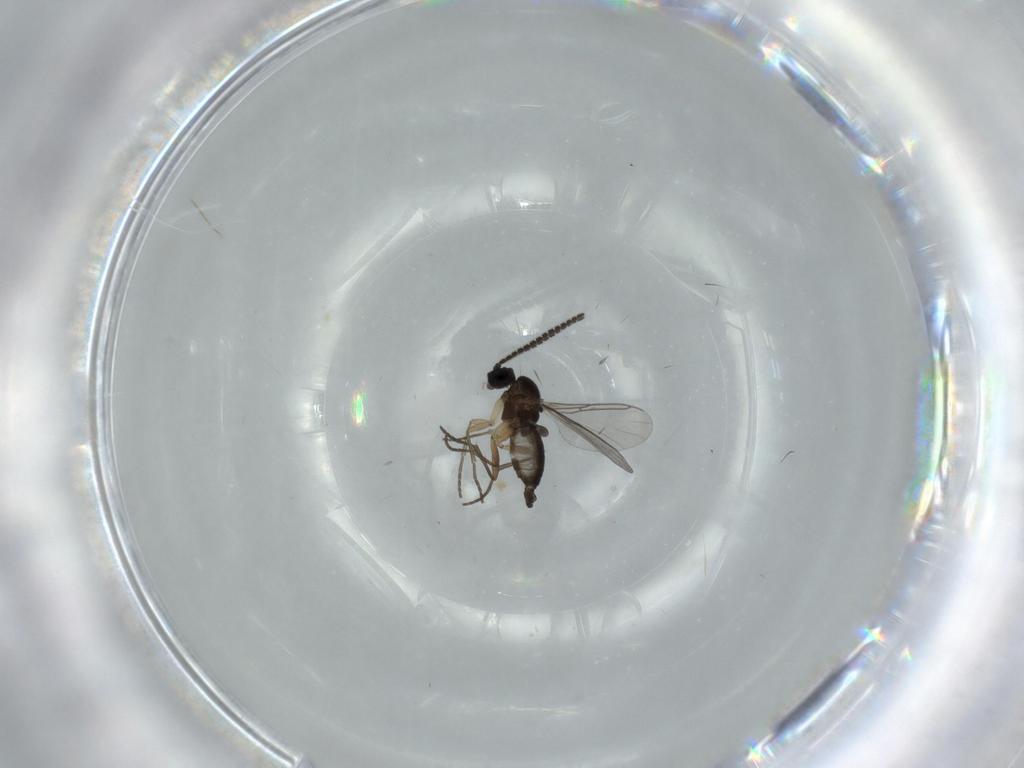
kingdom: Animalia
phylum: Arthropoda
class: Insecta
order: Diptera
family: Sciaridae
